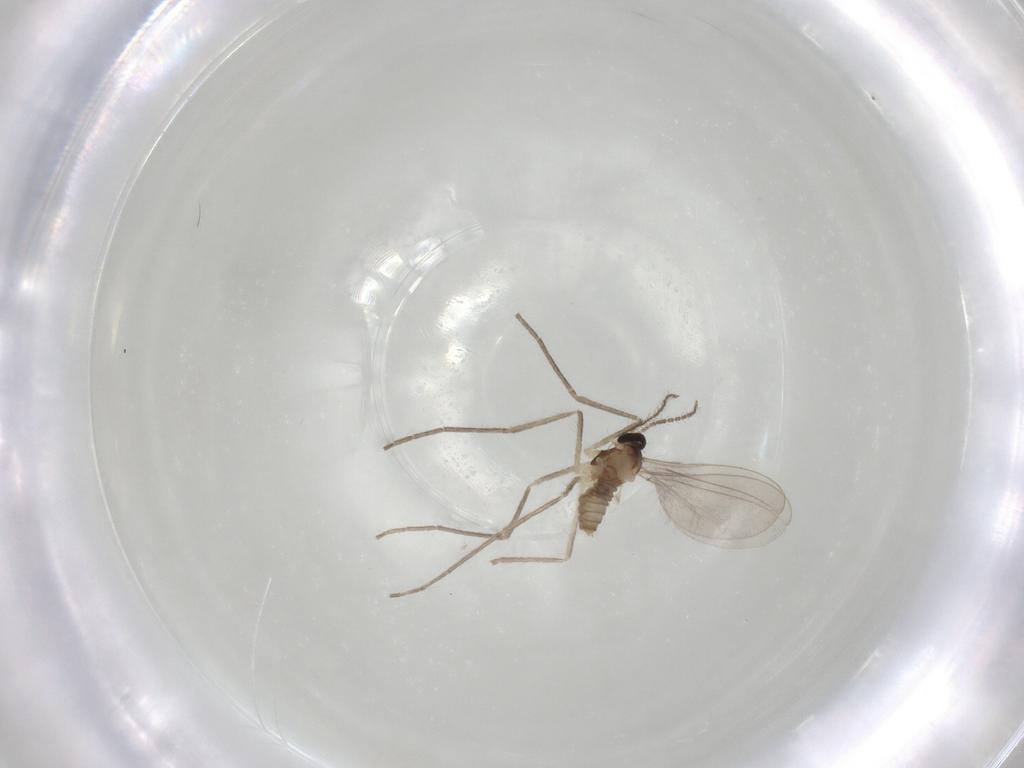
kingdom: Animalia
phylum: Arthropoda
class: Insecta
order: Diptera
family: Cecidomyiidae
